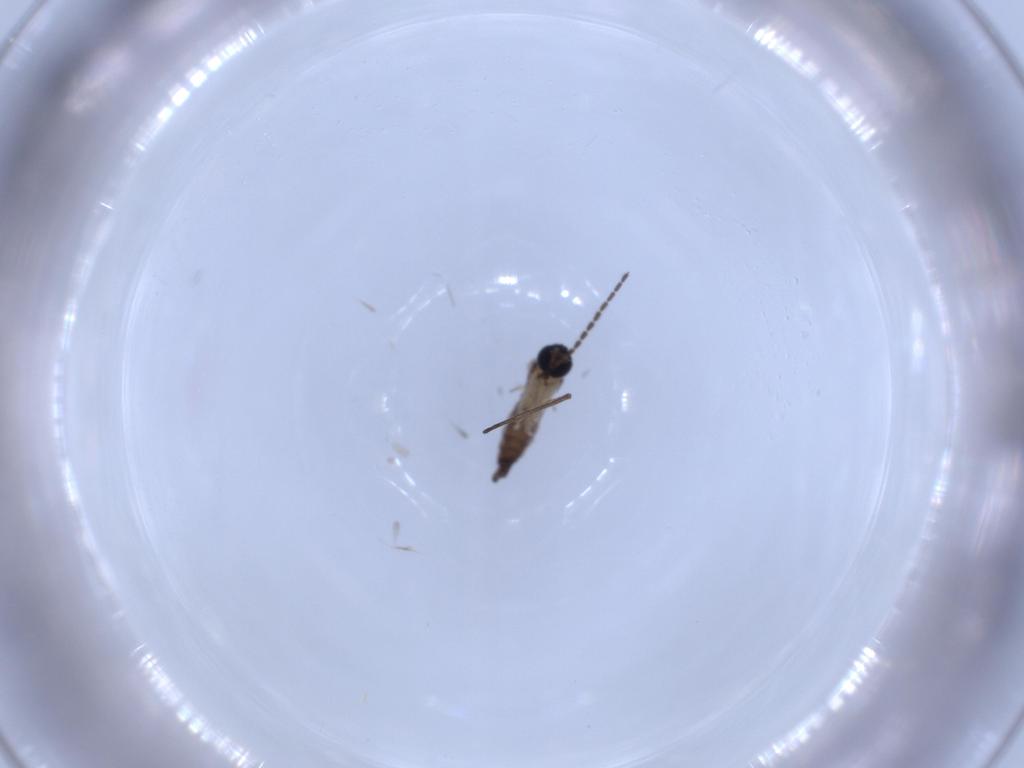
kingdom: Animalia
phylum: Arthropoda
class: Insecta
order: Diptera
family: Sciaridae
